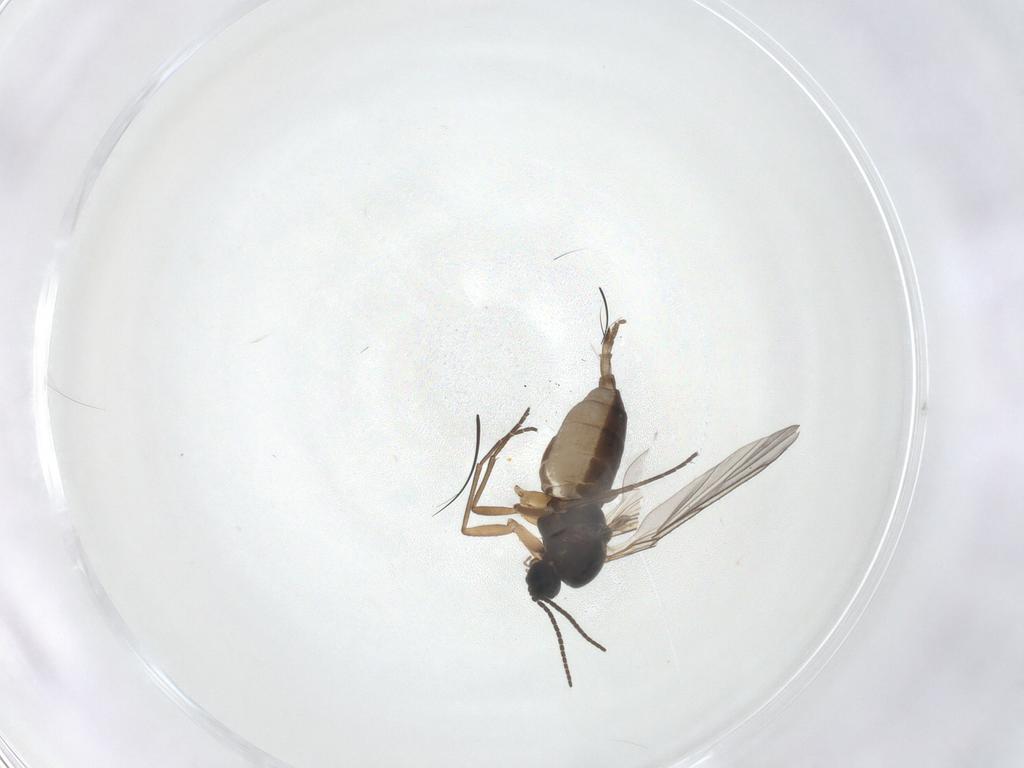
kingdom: Animalia
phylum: Arthropoda
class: Insecta
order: Diptera
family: Sciaridae
